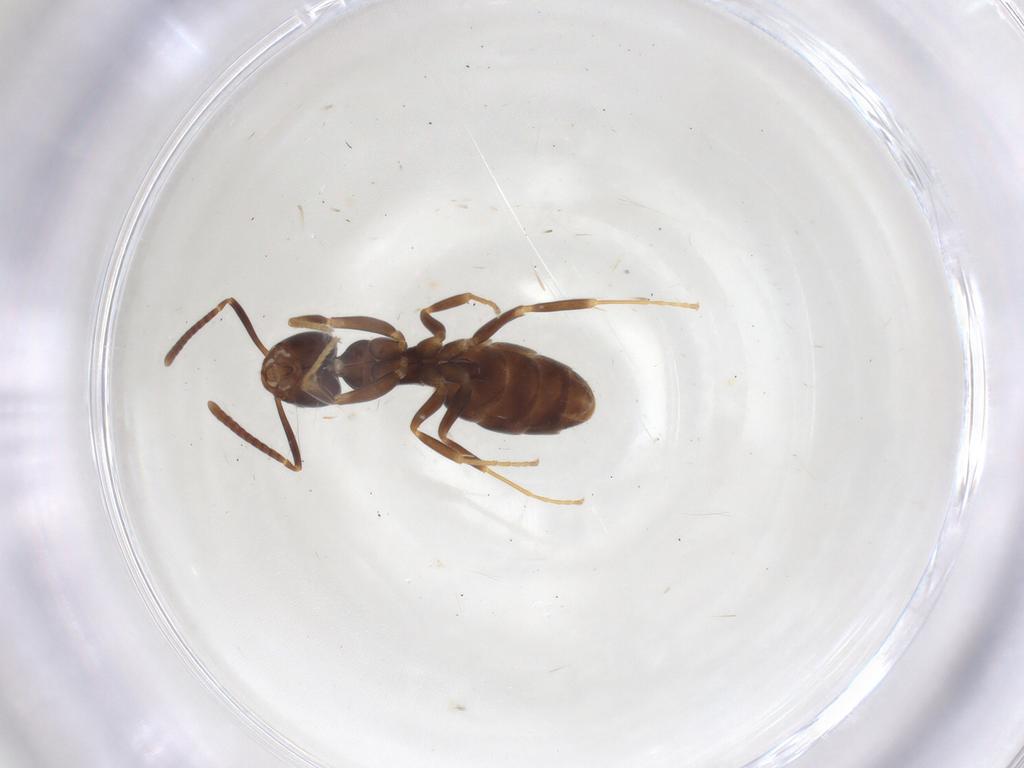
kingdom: Animalia
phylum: Arthropoda
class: Insecta
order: Hymenoptera
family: Formicidae
